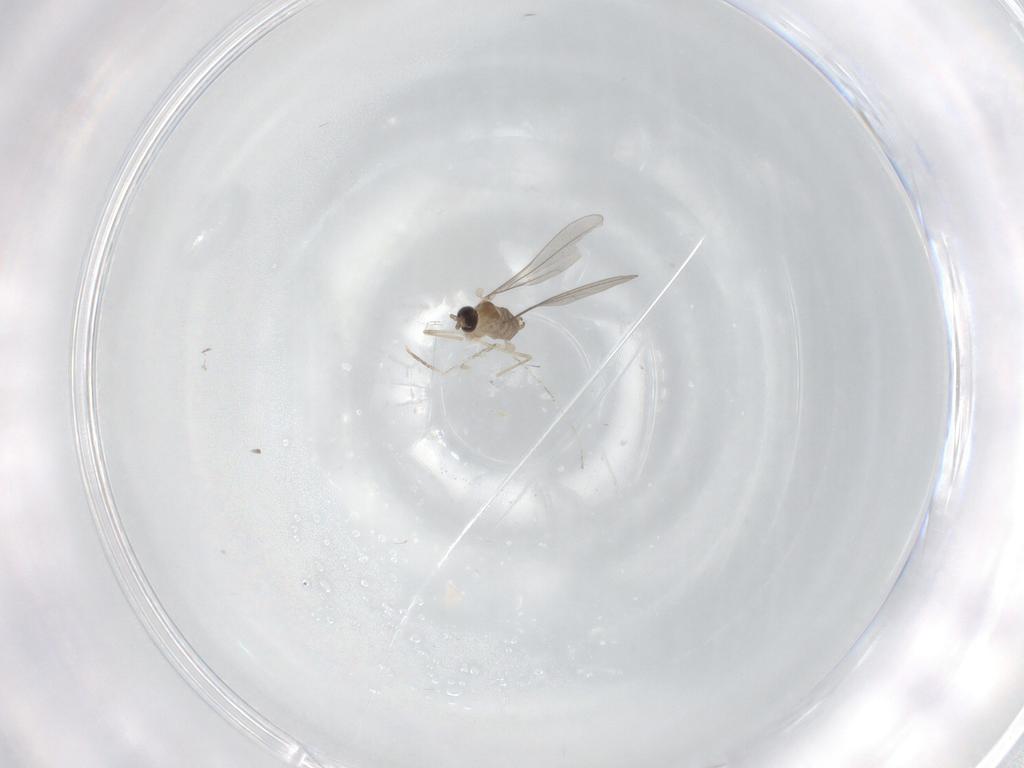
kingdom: Animalia
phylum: Arthropoda
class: Insecta
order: Diptera
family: Cecidomyiidae
